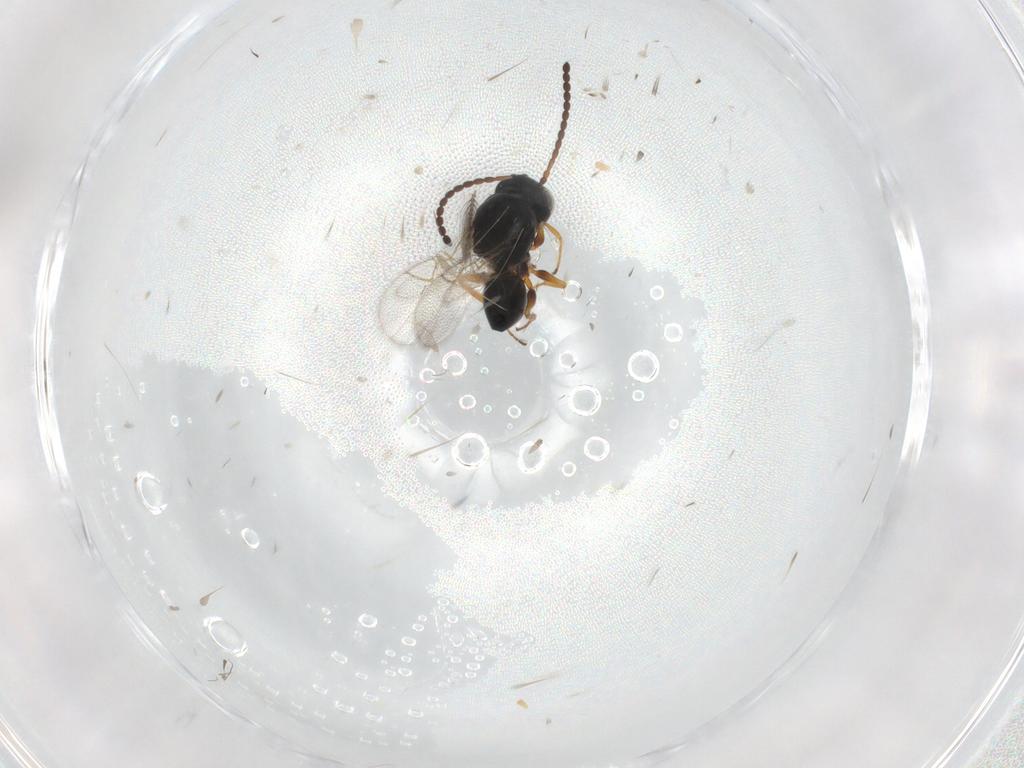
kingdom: Animalia
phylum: Arthropoda
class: Insecta
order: Hymenoptera
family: Figitidae
